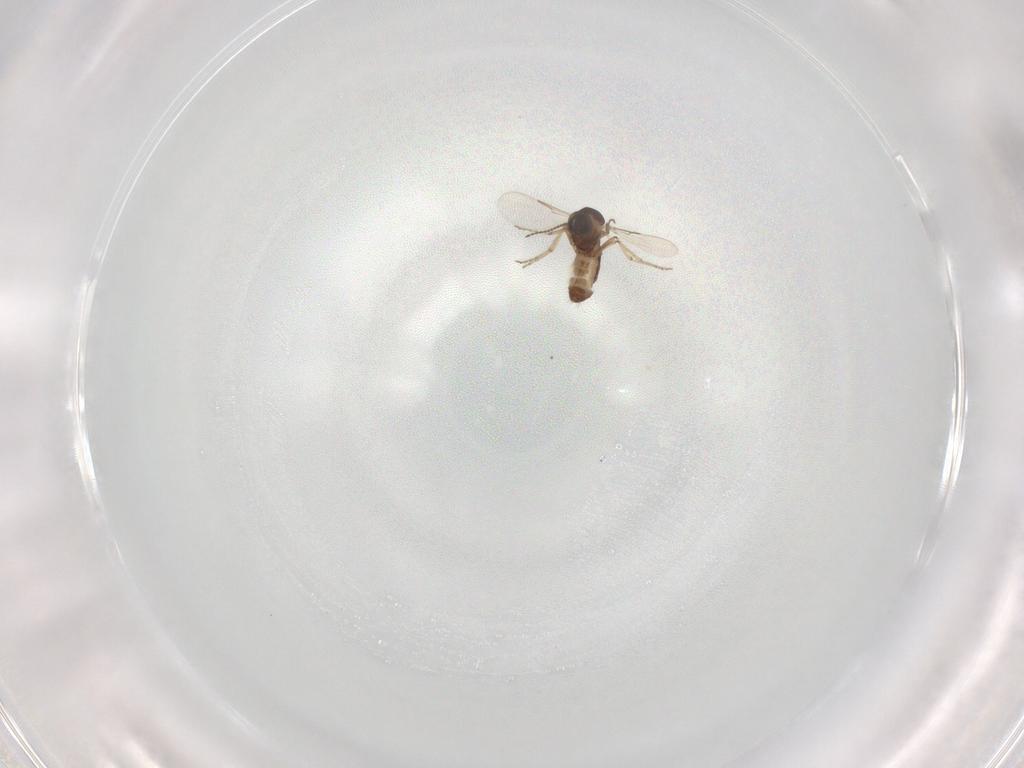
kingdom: Animalia
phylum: Arthropoda
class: Insecta
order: Diptera
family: Ceratopogonidae
